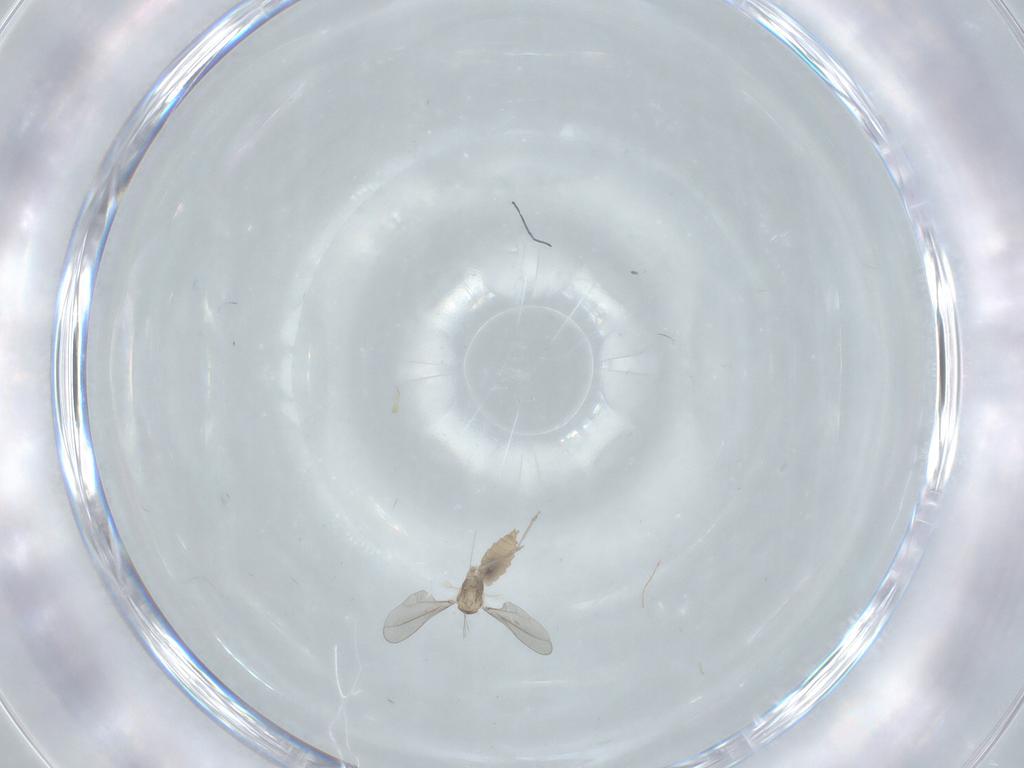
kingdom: Animalia
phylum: Arthropoda
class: Insecta
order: Diptera
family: Cecidomyiidae
